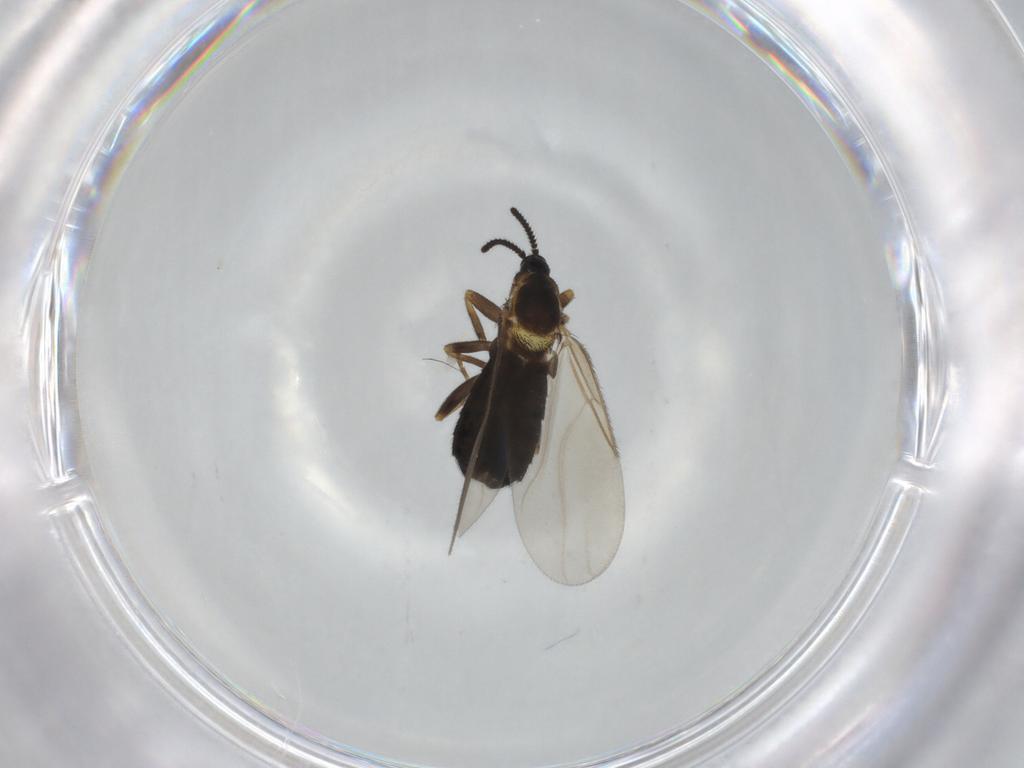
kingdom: Animalia
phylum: Arthropoda
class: Insecta
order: Diptera
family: Scatopsidae
